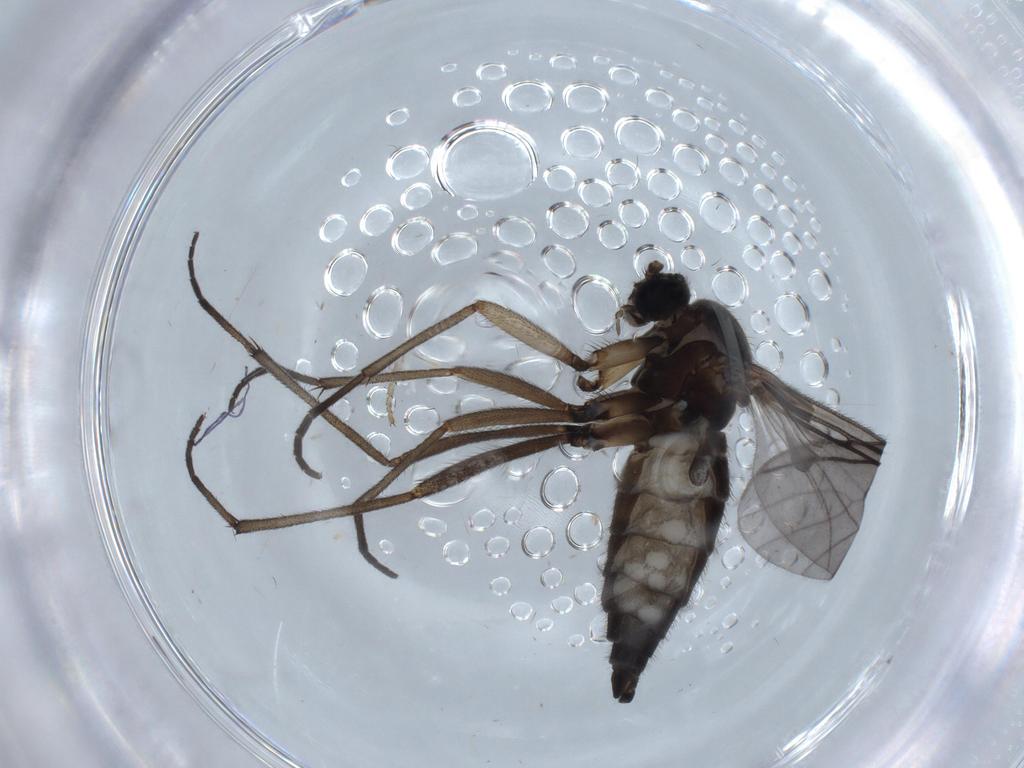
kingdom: Animalia
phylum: Arthropoda
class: Insecta
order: Diptera
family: Sciaridae
